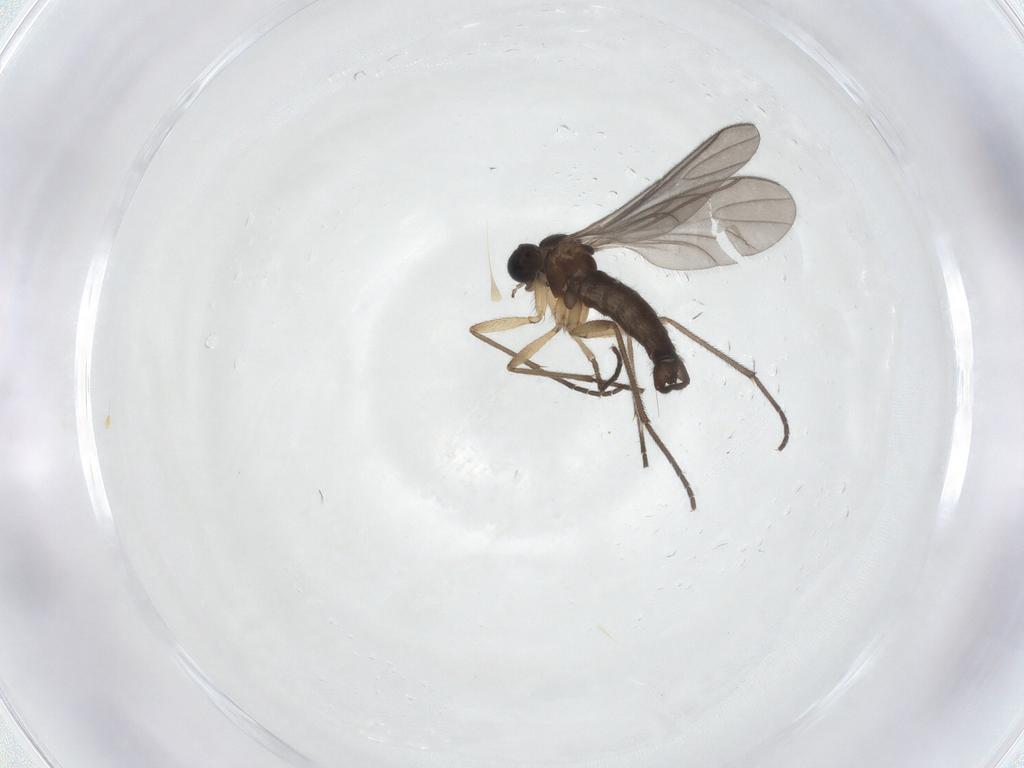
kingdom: Animalia
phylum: Arthropoda
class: Insecta
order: Diptera
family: Sciaridae
